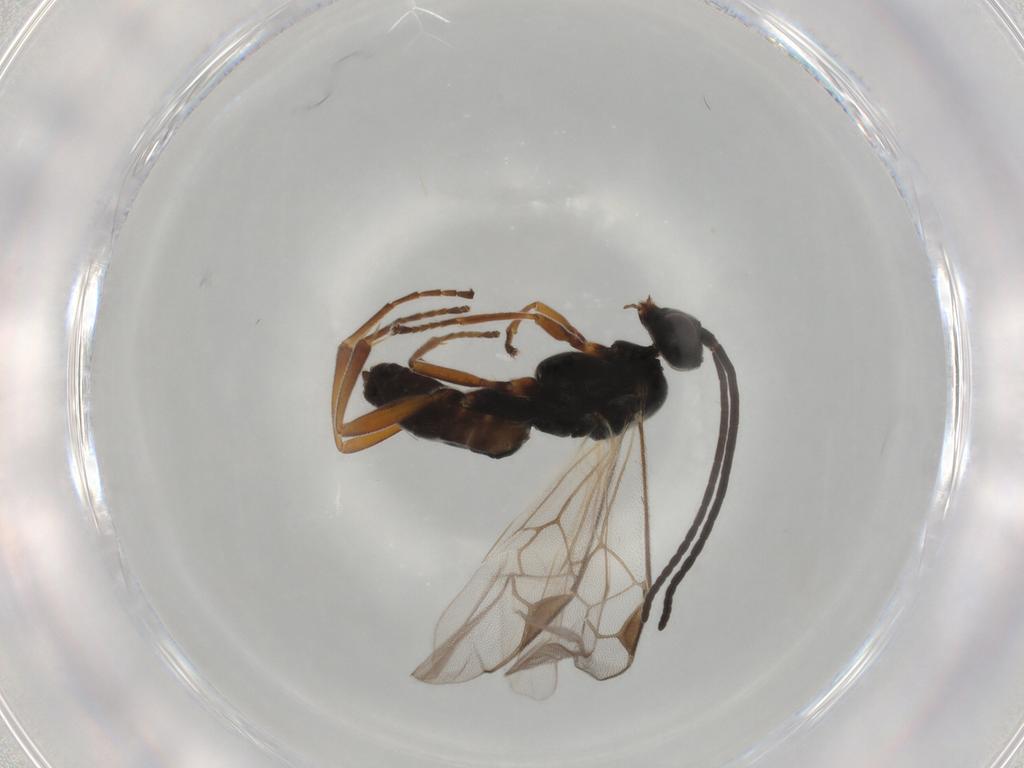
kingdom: Animalia
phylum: Arthropoda
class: Insecta
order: Hymenoptera
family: Braconidae
